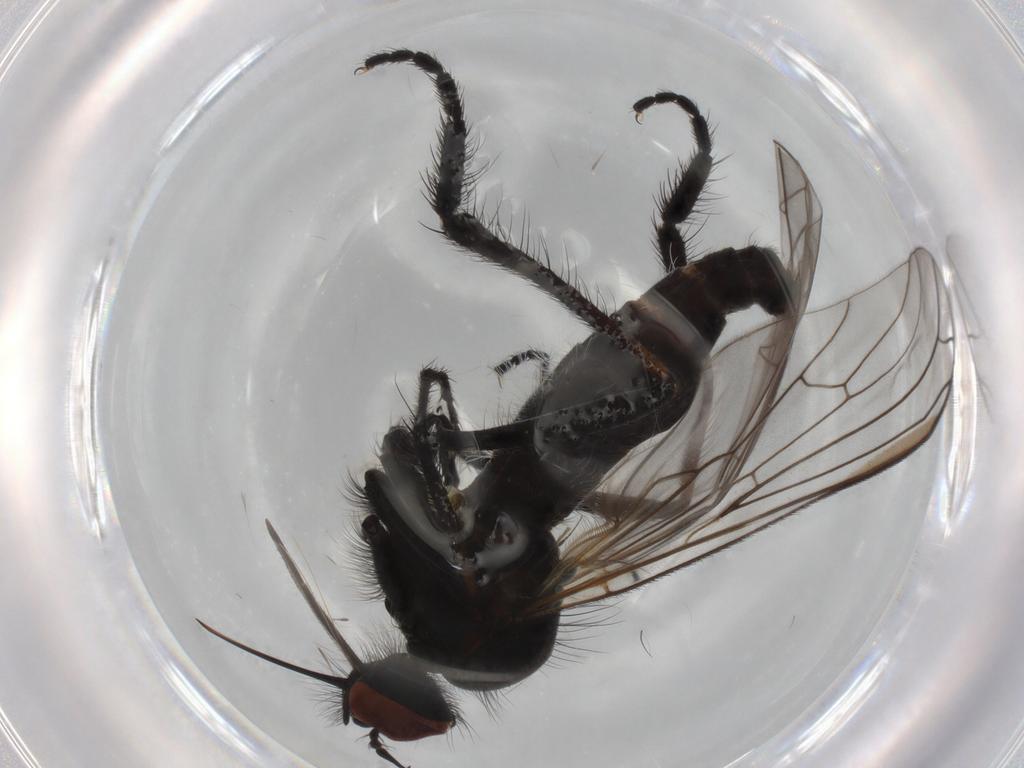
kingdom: Animalia
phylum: Arthropoda
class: Insecta
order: Diptera
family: Empididae
